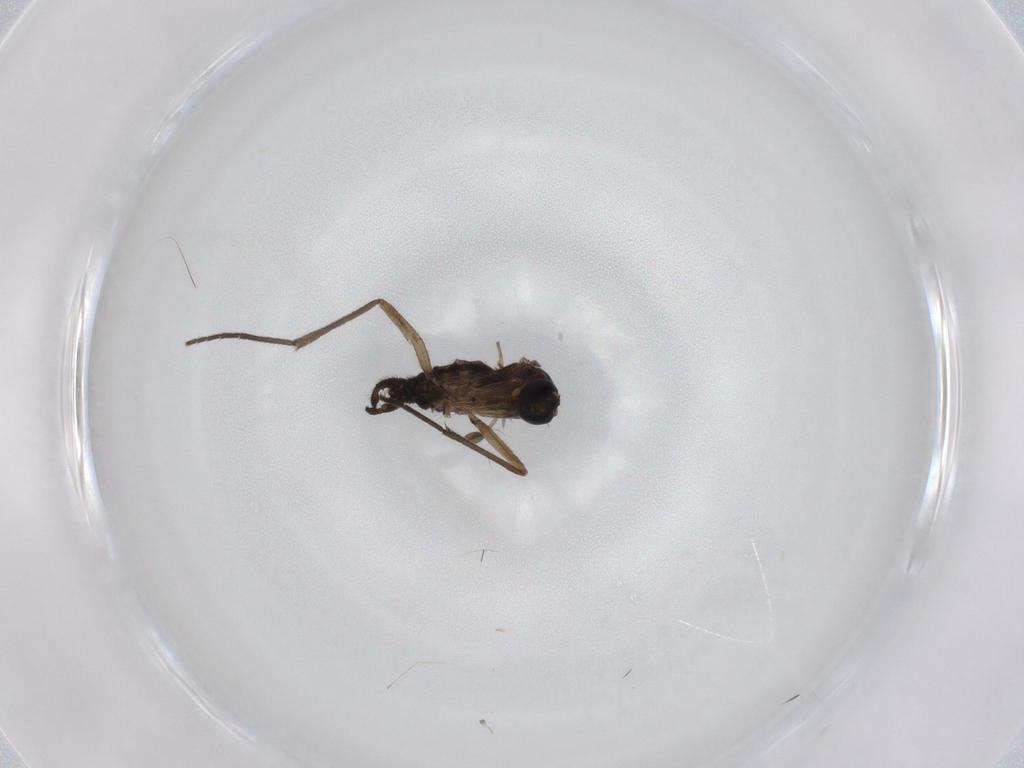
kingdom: Animalia
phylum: Arthropoda
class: Insecta
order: Diptera
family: Sciaridae
